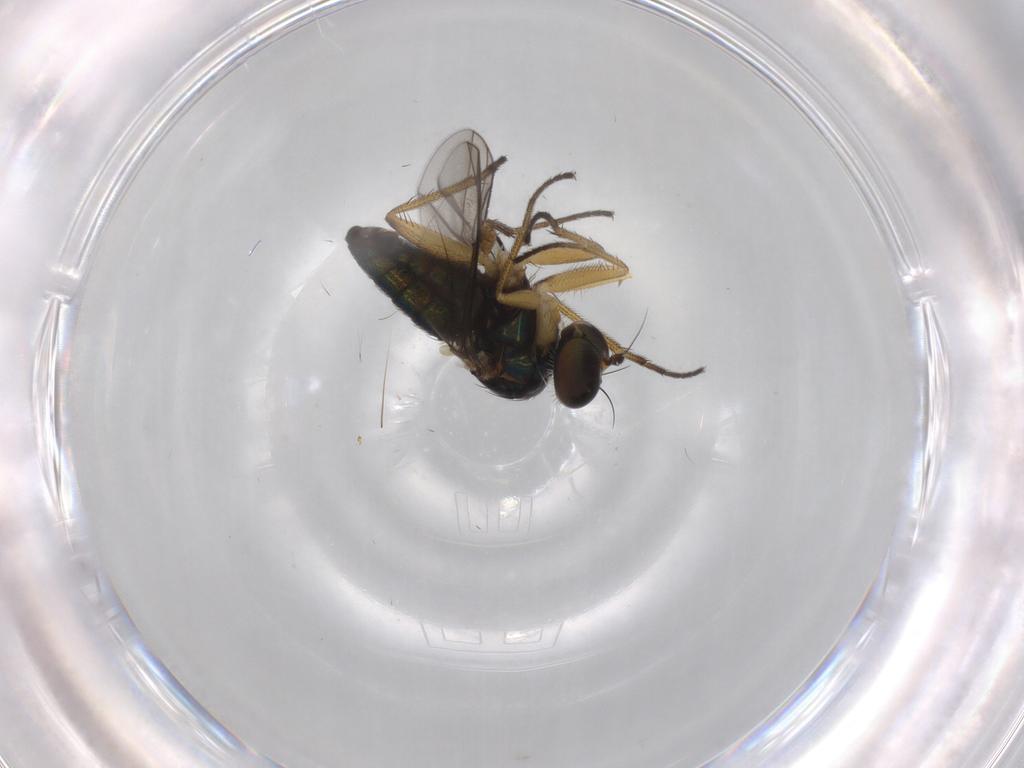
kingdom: Animalia
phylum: Arthropoda
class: Insecta
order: Diptera
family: Dolichopodidae
